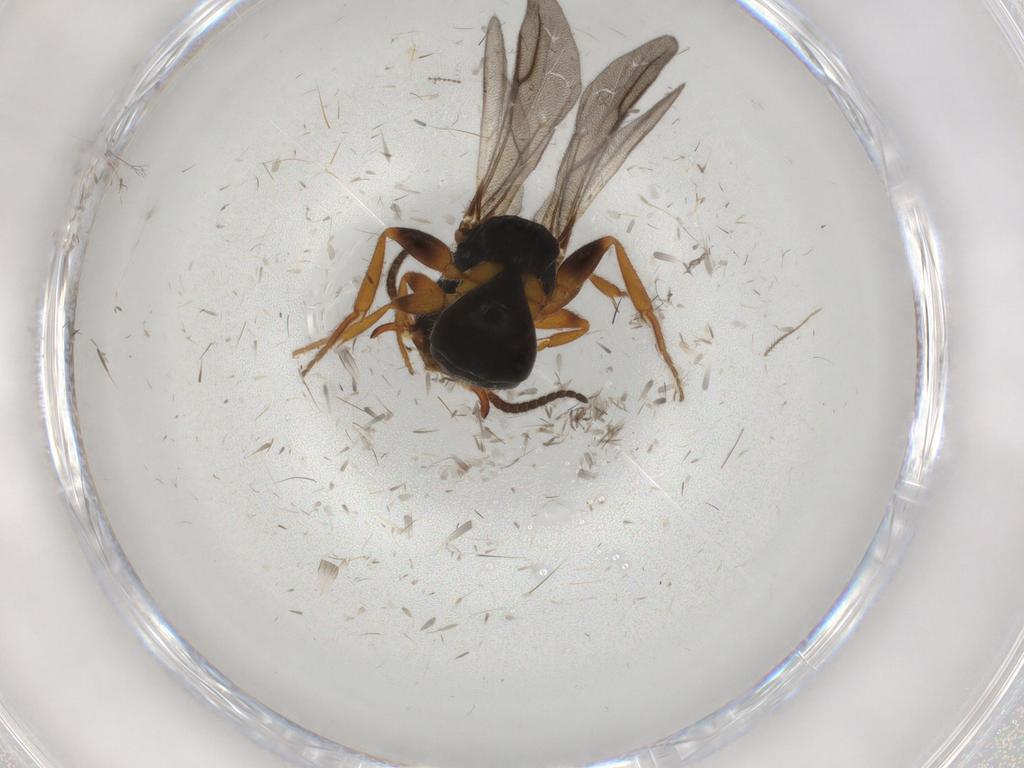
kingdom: Animalia
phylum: Arthropoda
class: Insecta
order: Hymenoptera
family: Bethylidae
